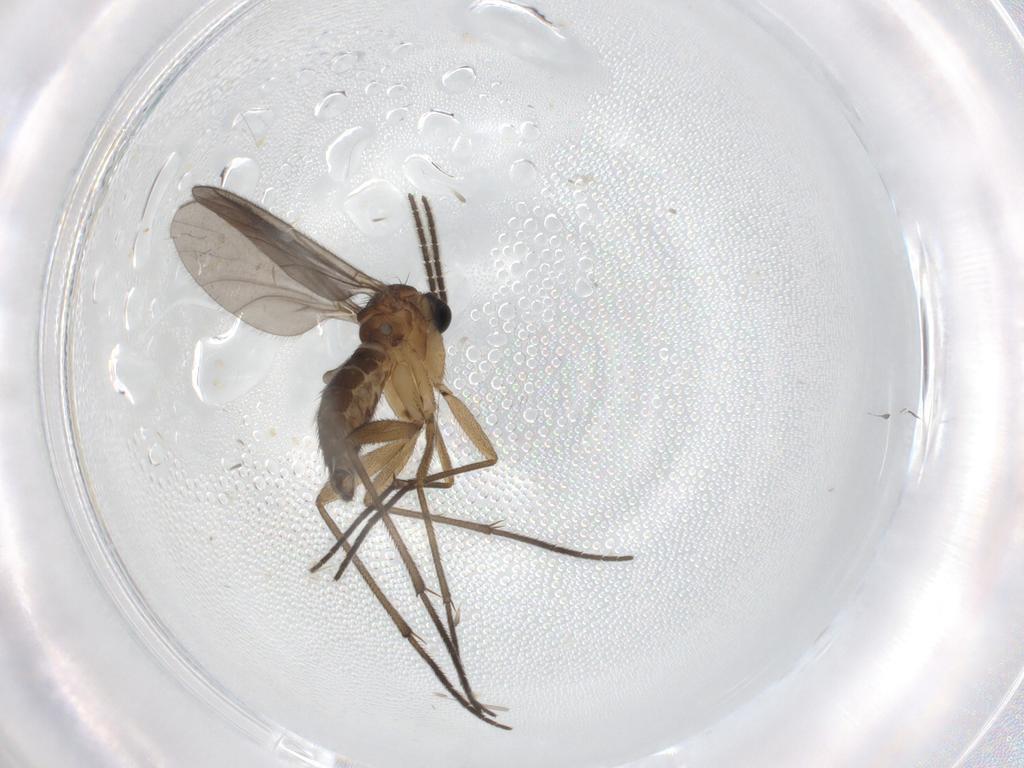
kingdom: Animalia
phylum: Arthropoda
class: Insecta
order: Diptera
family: Sciaridae
